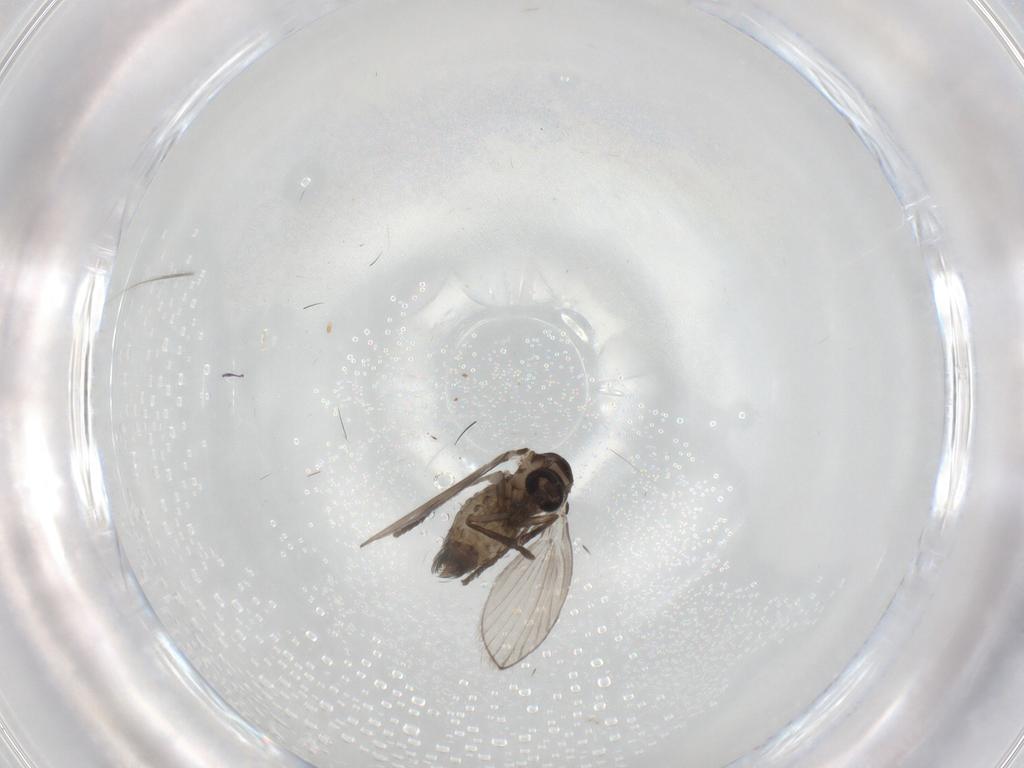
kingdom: Animalia
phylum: Arthropoda
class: Insecta
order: Diptera
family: Psychodidae
